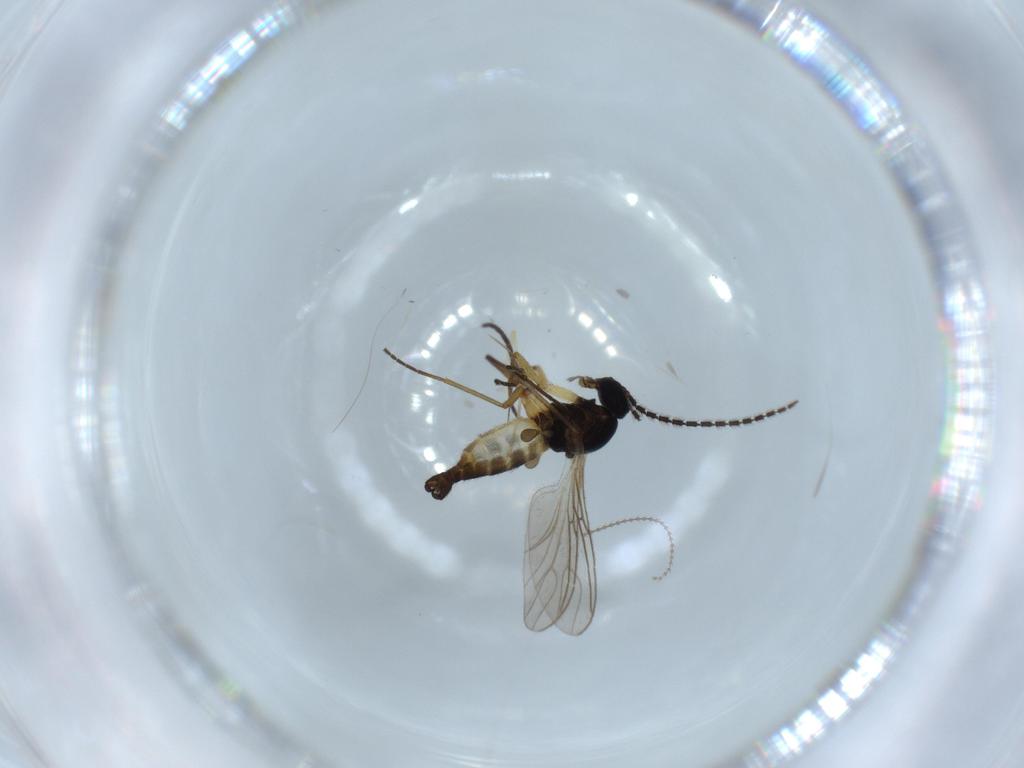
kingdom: Animalia
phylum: Arthropoda
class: Insecta
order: Diptera
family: Sciaridae
